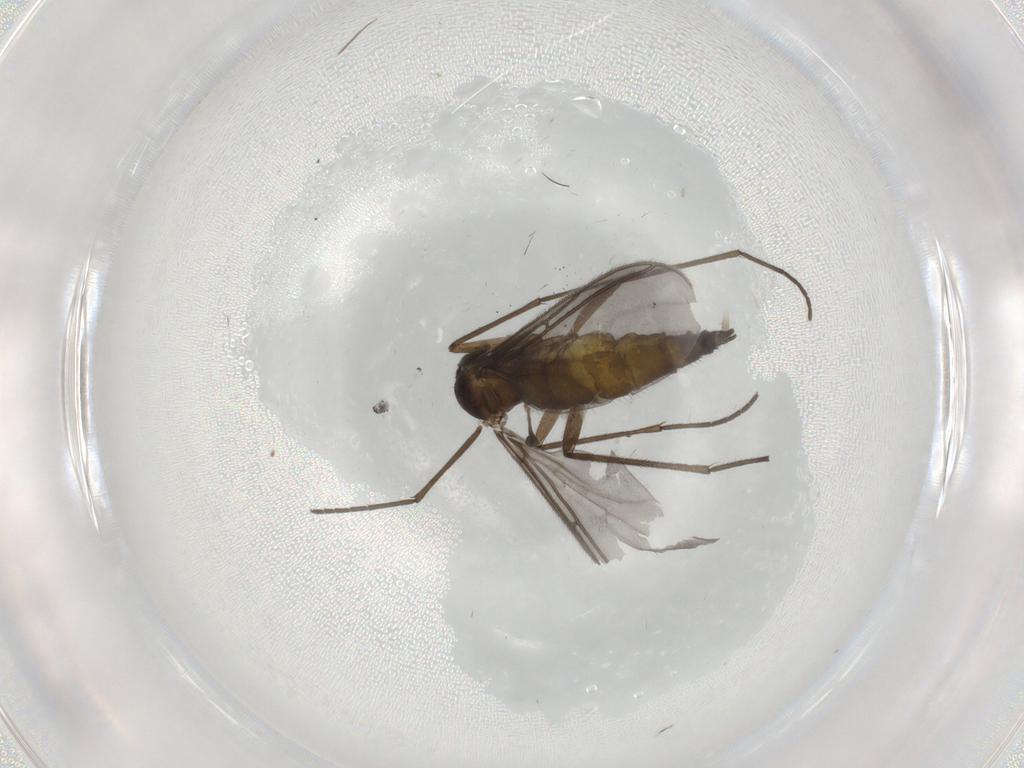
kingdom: Animalia
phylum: Arthropoda
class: Insecta
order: Diptera
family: Sciaridae
